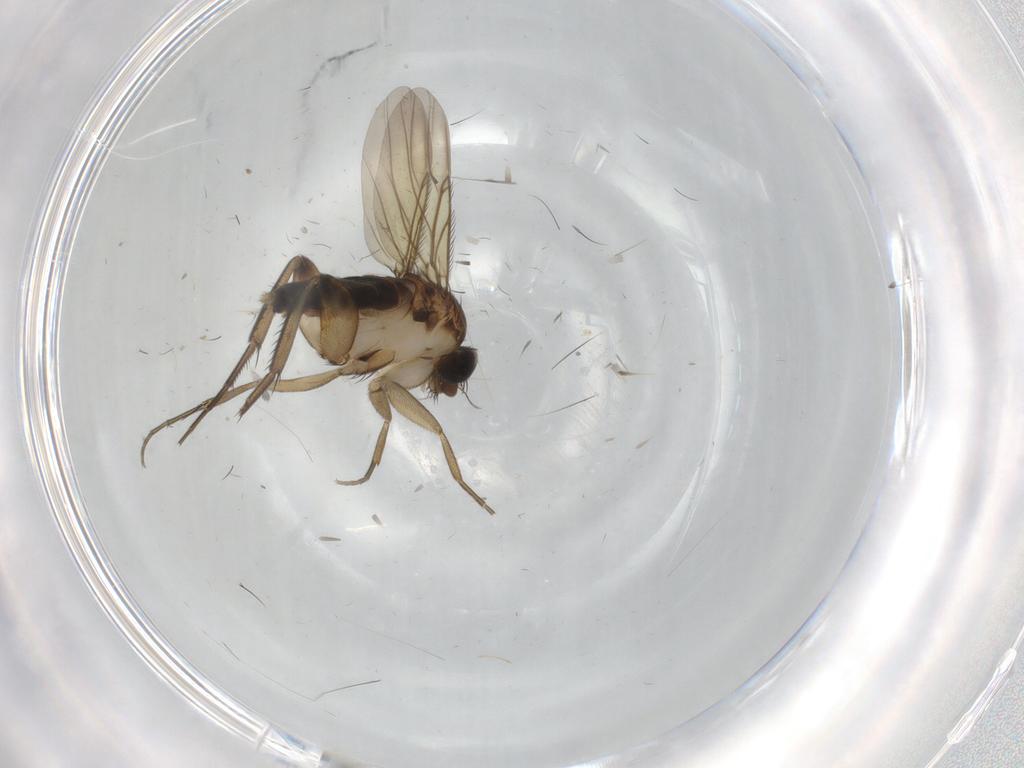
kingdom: Animalia
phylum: Arthropoda
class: Insecta
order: Diptera
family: Phoridae
